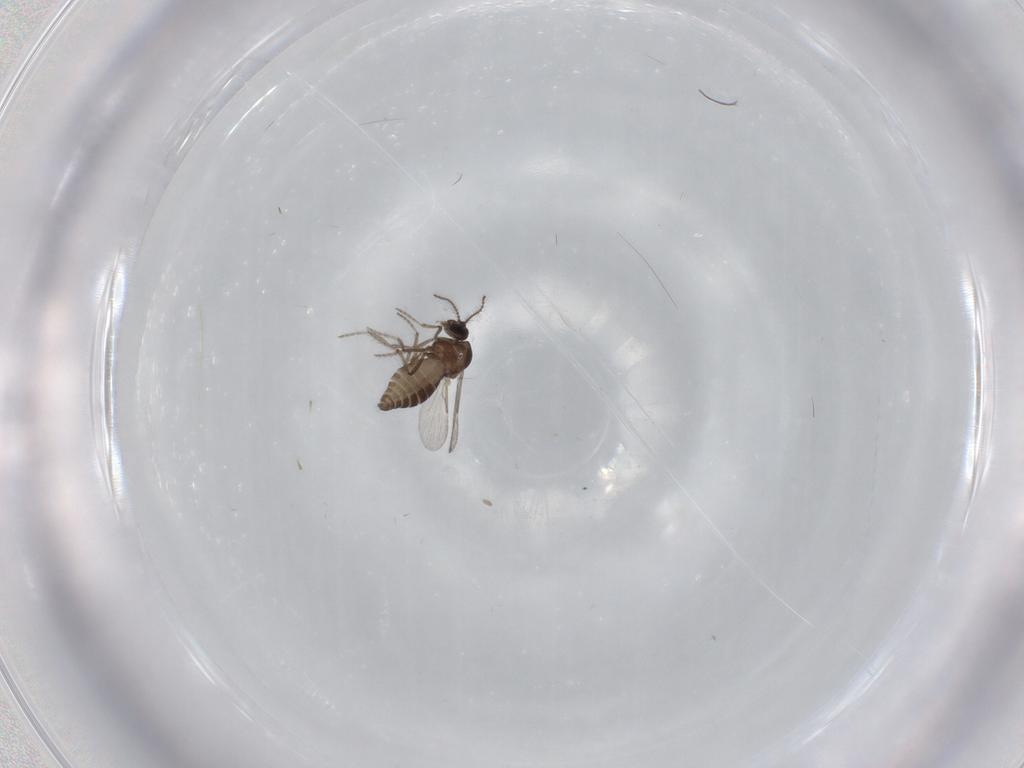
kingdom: Animalia
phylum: Arthropoda
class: Insecta
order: Diptera
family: Ceratopogonidae
